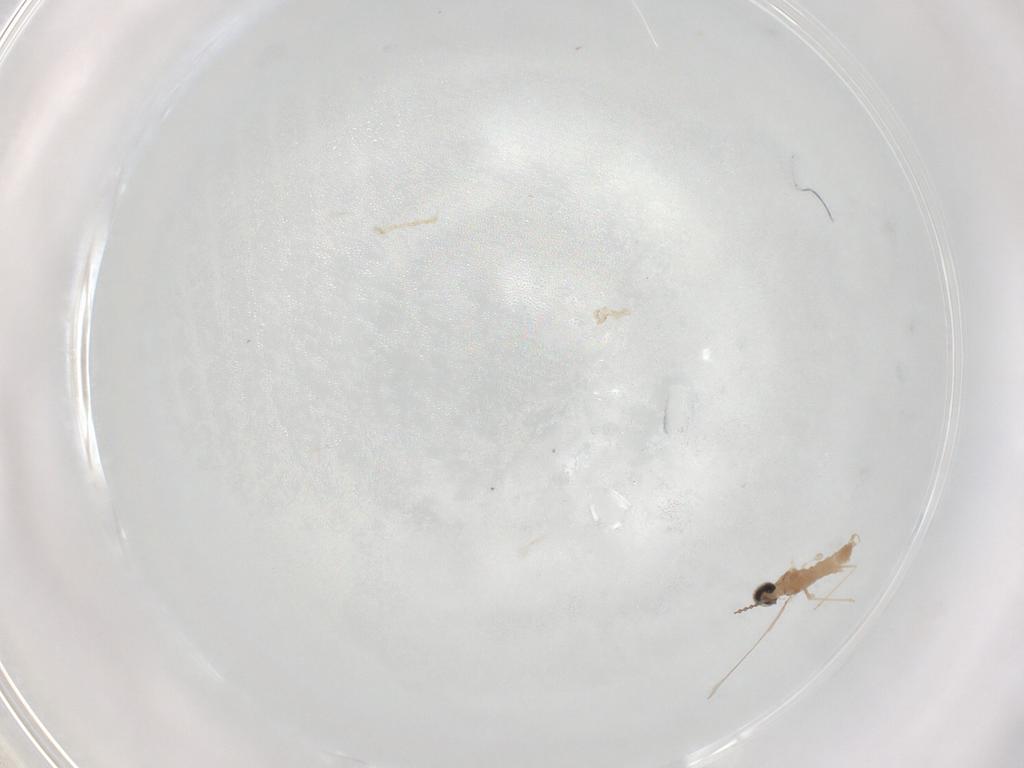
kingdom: Animalia
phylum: Arthropoda
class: Insecta
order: Diptera
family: Cecidomyiidae
